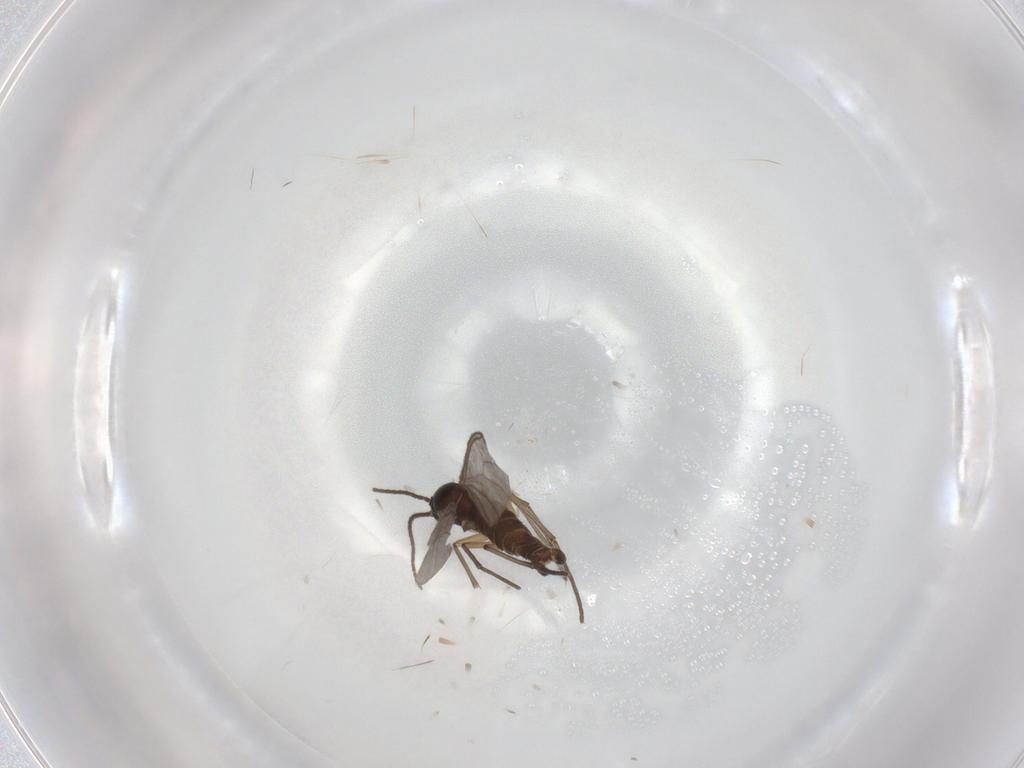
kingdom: Animalia
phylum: Arthropoda
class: Insecta
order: Diptera
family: Sciaridae
